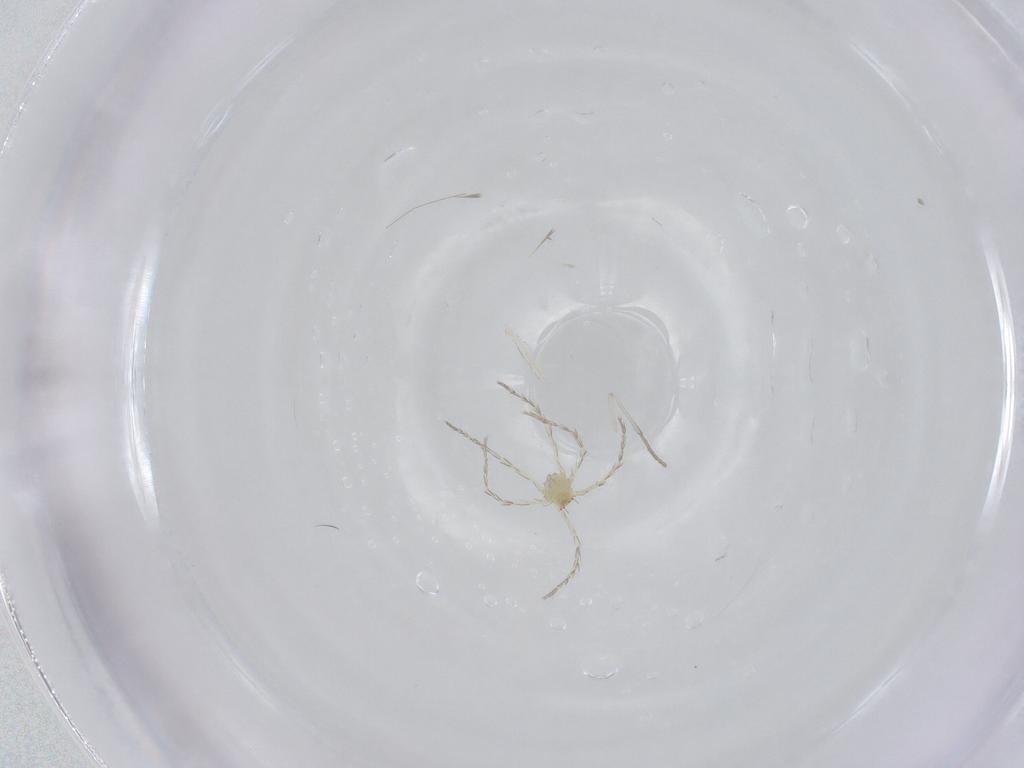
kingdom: Animalia
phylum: Arthropoda
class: Insecta
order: Diptera
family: Psychodidae
